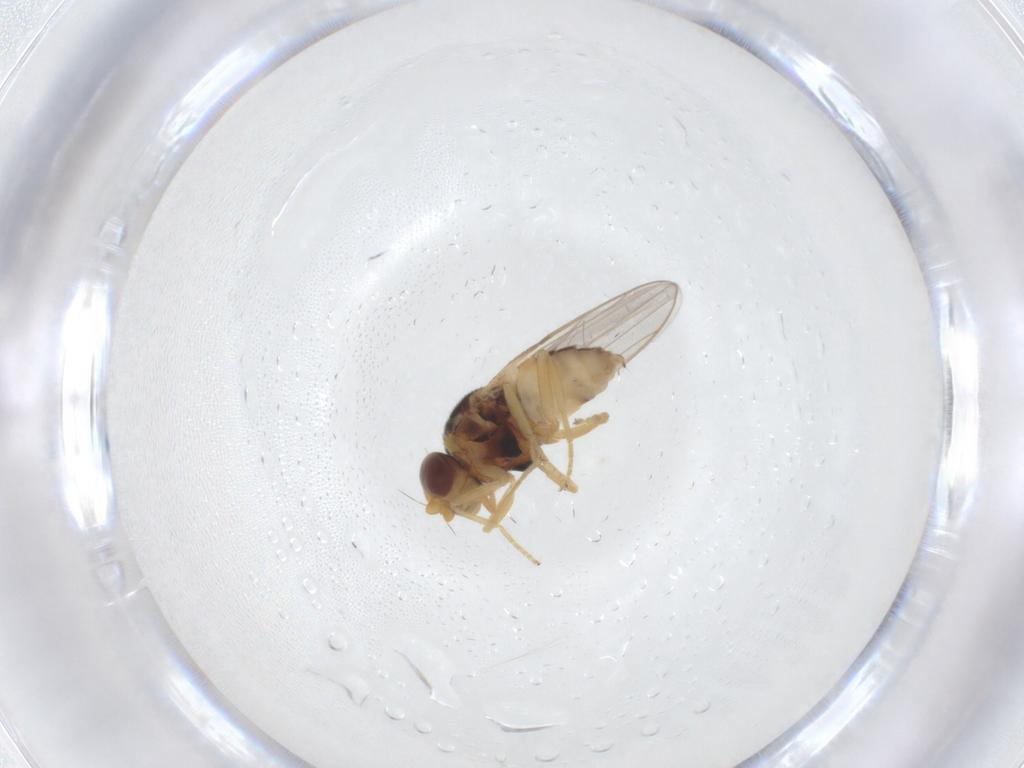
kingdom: Animalia
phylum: Arthropoda
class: Insecta
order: Diptera
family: Chloropidae
